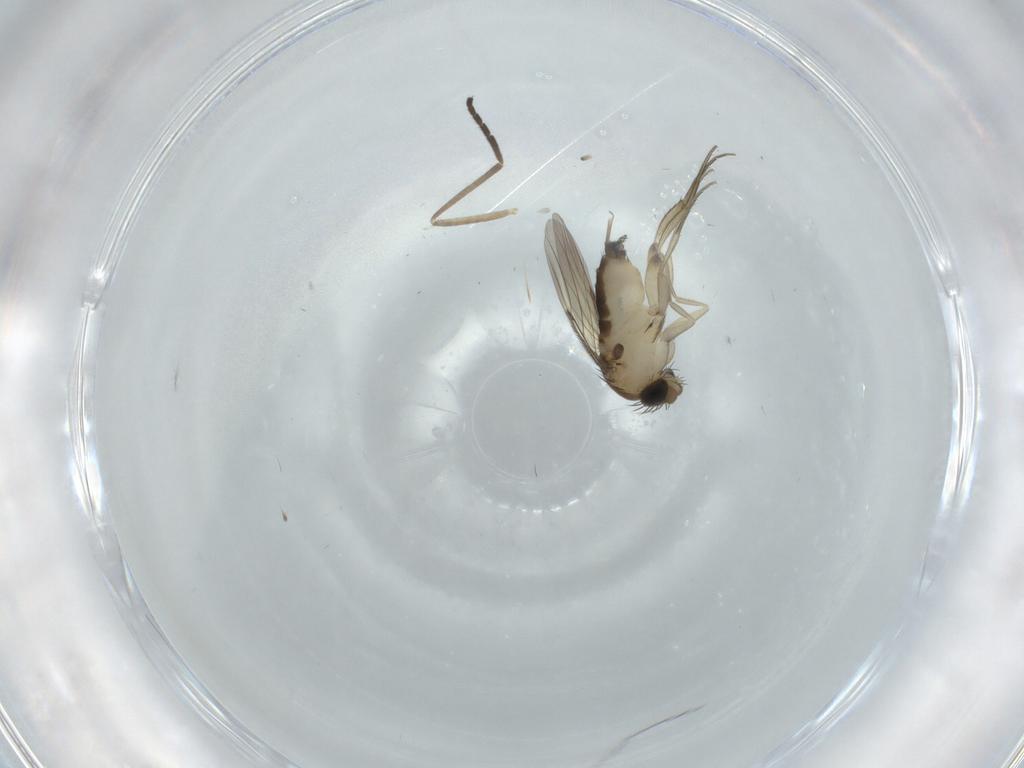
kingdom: Animalia
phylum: Arthropoda
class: Insecta
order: Diptera
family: Phoridae
